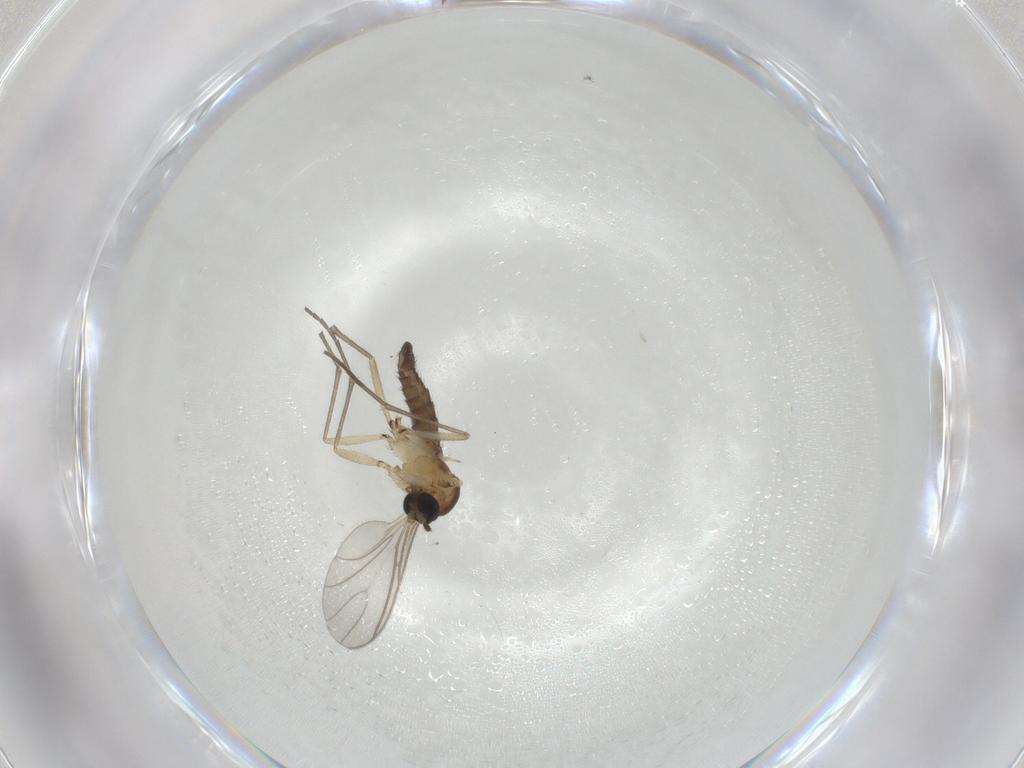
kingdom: Animalia
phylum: Arthropoda
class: Insecta
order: Diptera
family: Sciaridae
